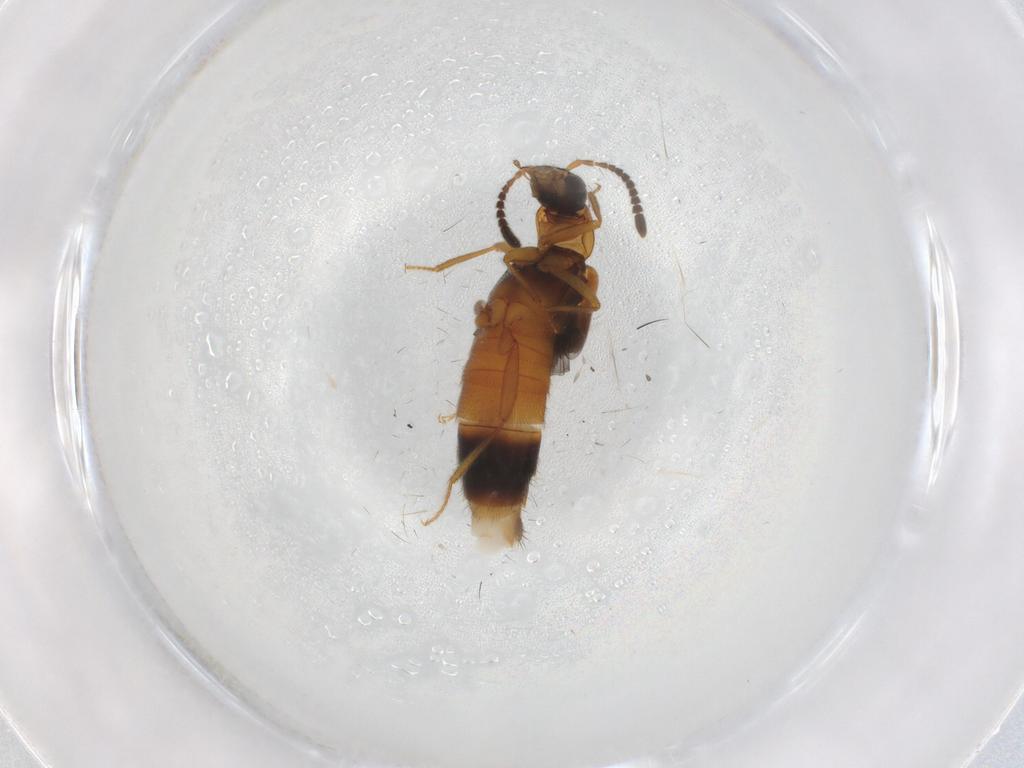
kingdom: Animalia
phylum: Arthropoda
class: Insecta
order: Coleoptera
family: Staphylinidae
